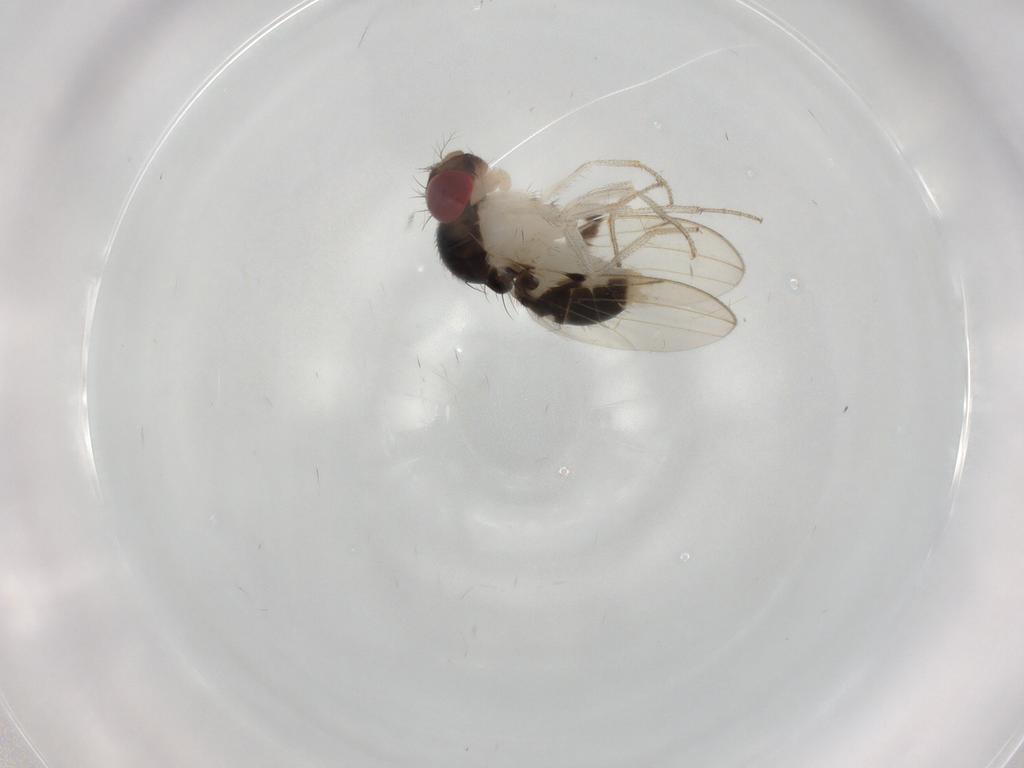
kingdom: Animalia
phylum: Arthropoda
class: Insecta
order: Diptera
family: Drosophilidae
